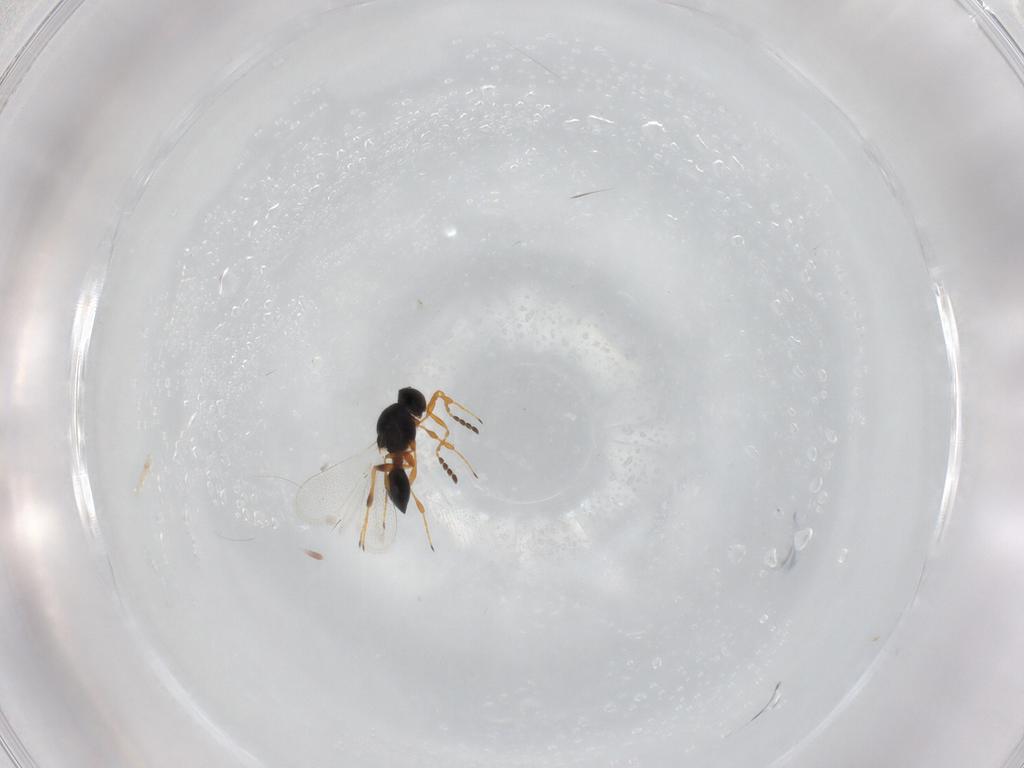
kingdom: Animalia
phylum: Arthropoda
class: Insecta
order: Hymenoptera
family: Platygastridae
